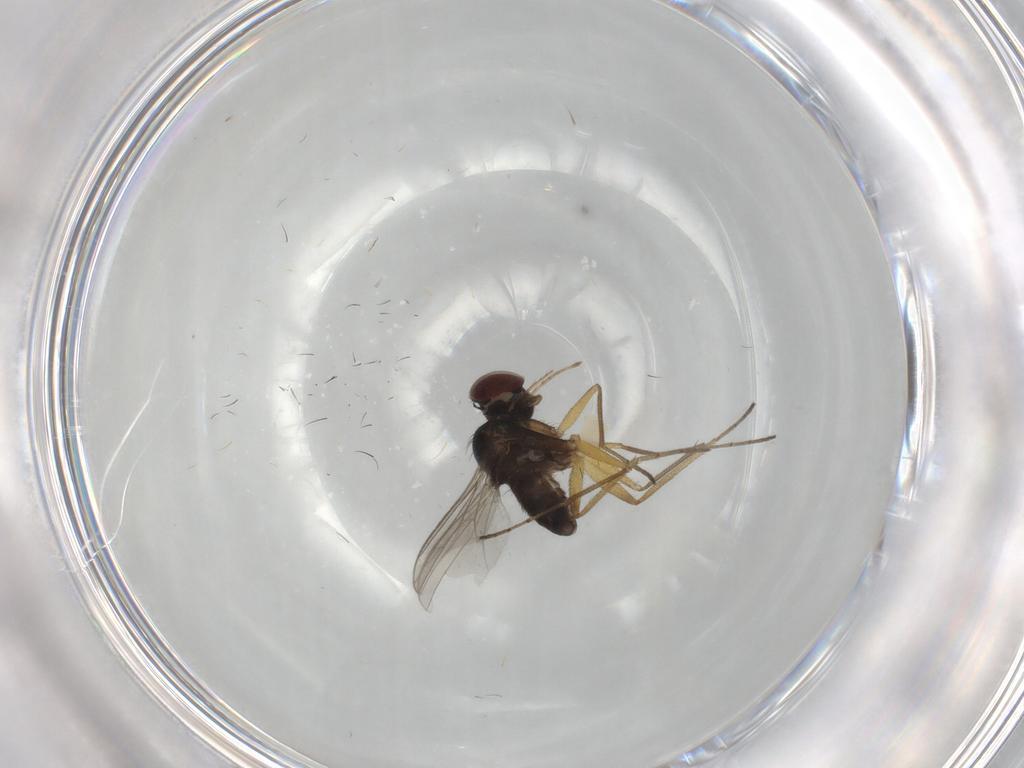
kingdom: Animalia
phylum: Arthropoda
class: Insecta
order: Diptera
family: Dolichopodidae
